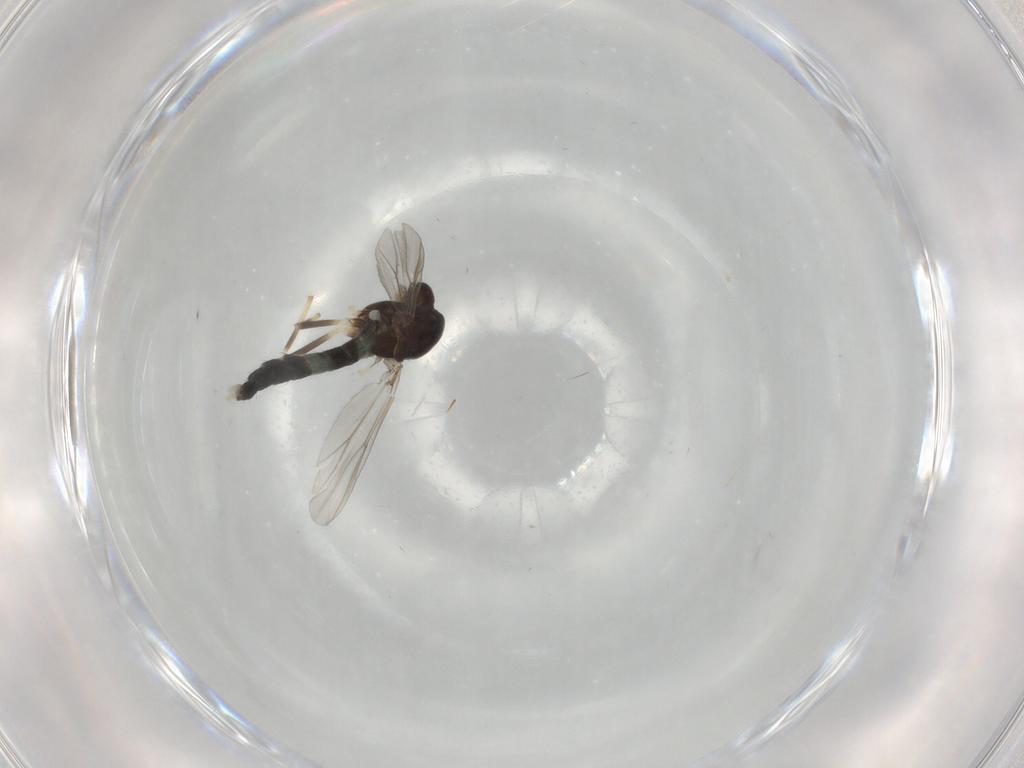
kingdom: Animalia
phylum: Arthropoda
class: Insecta
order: Diptera
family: Chironomidae
